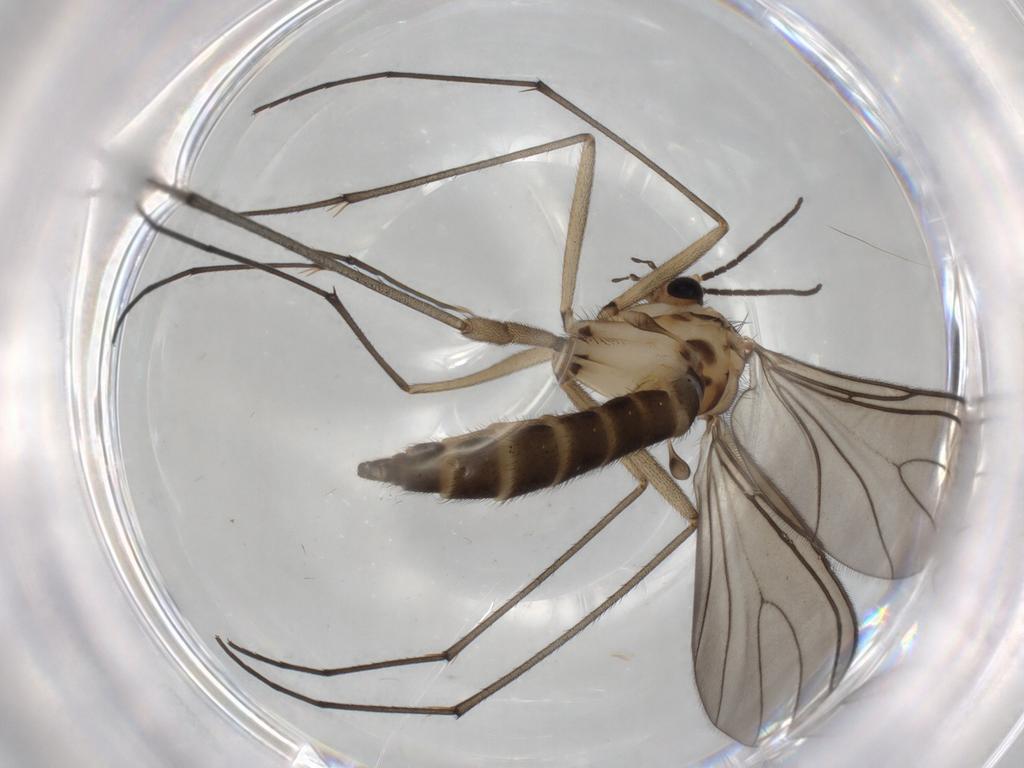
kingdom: Animalia
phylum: Arthropoda
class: Insecta
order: Diptera
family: Sciaridae
